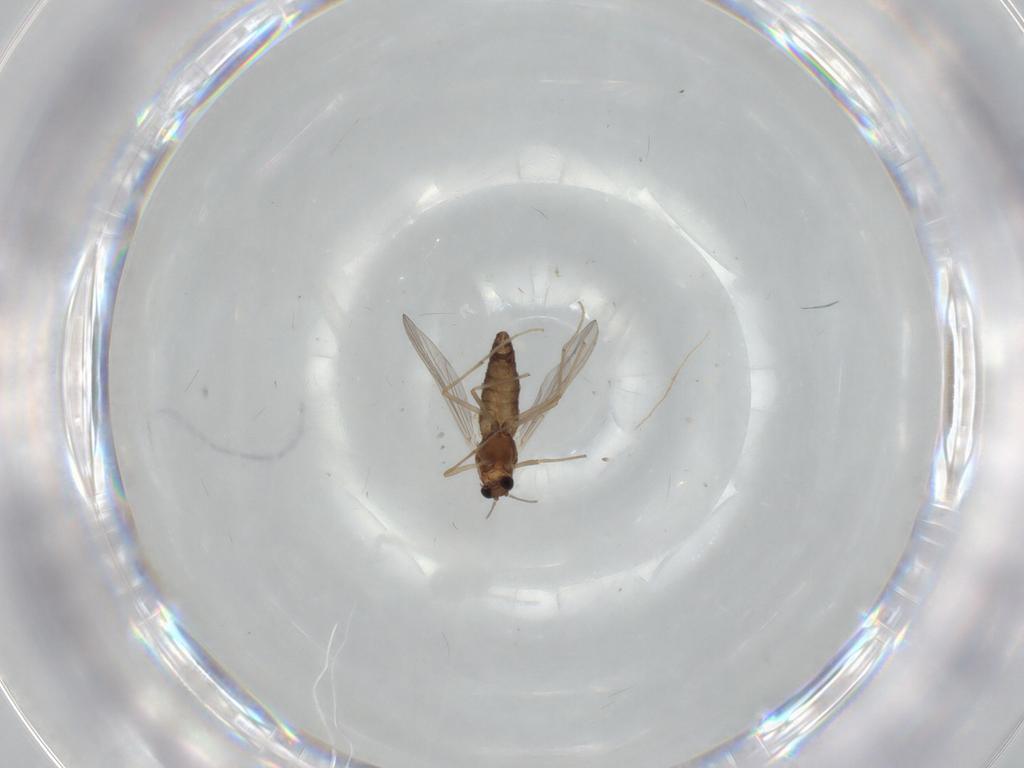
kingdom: Animalia
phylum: Arthropoda
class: Insecta
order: Diptera
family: Chironomidae
